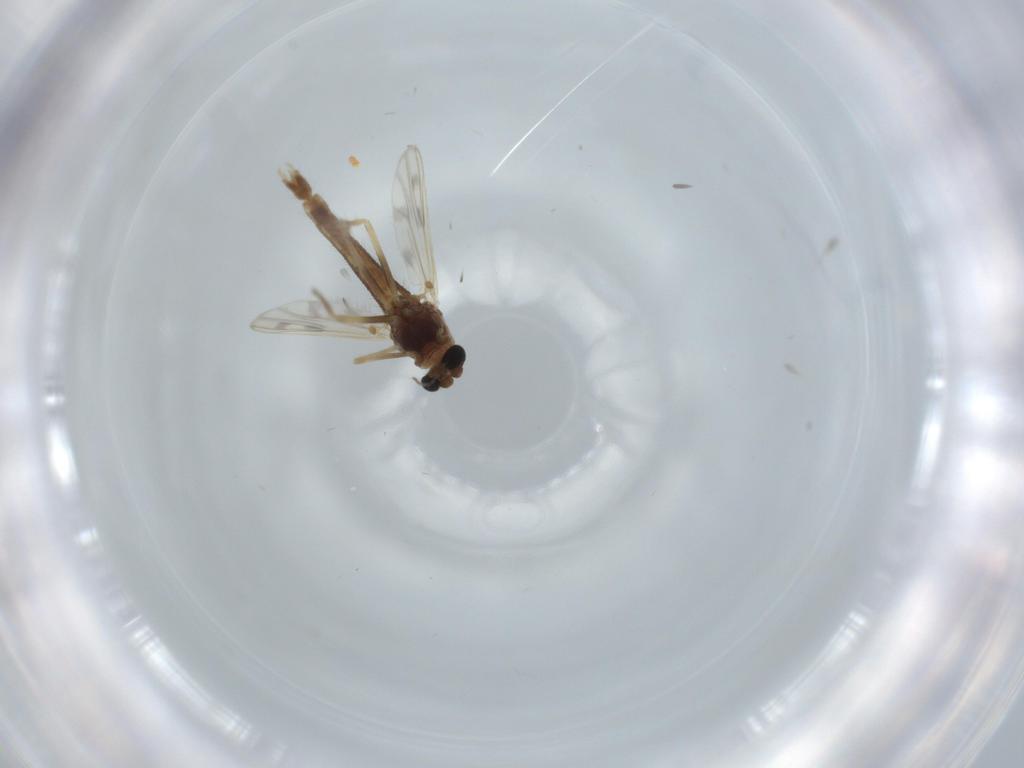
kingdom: Animalia
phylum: Arthropoda
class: Insecta
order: Diptera
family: Chironomidae
